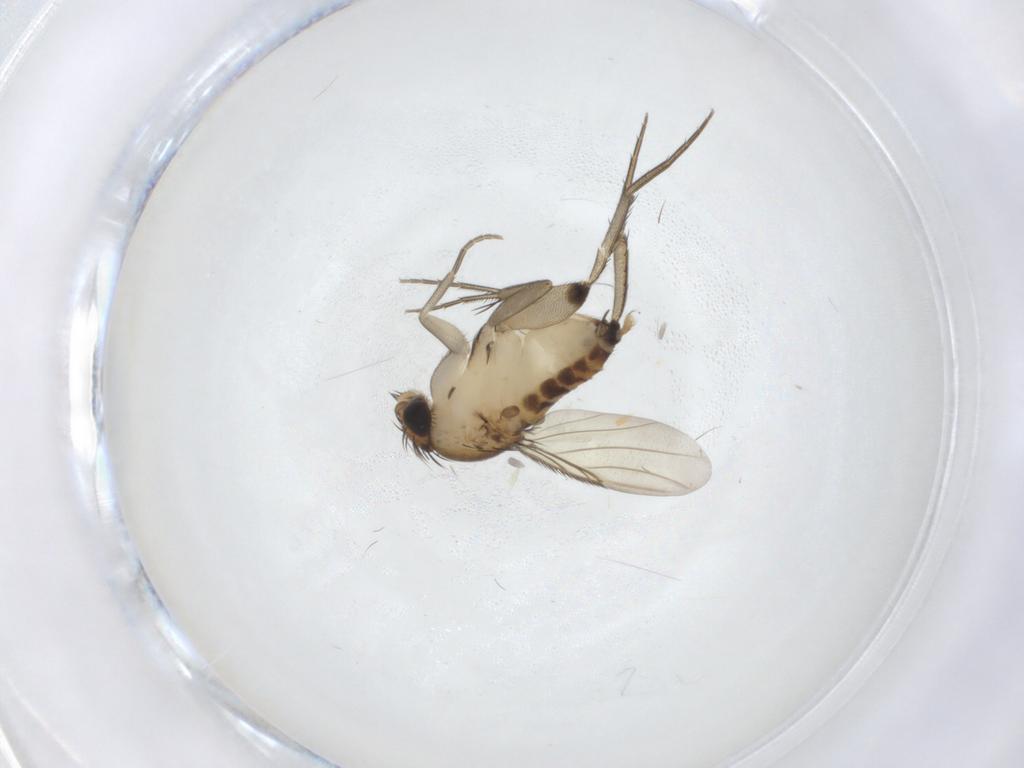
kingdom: Animalia
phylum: Arthropoda
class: Insecta
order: Diptera
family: Phoridae
